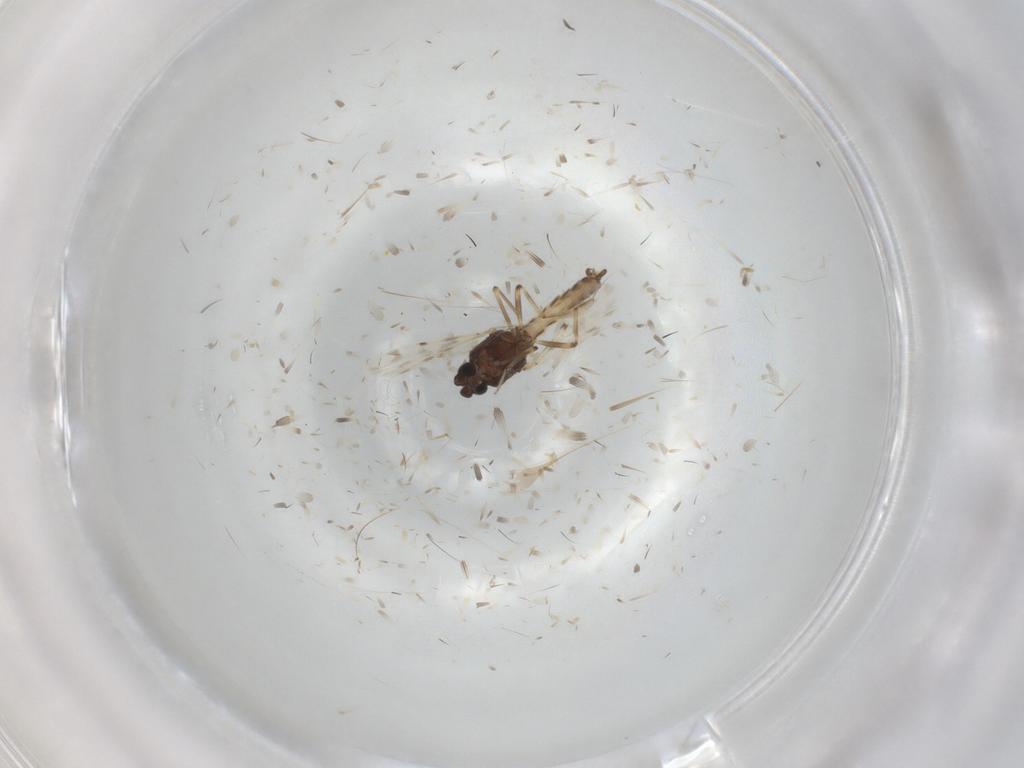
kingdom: Animalia
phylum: Arthropoda
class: Insecta
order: Diptera
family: Ceratopogonidae
